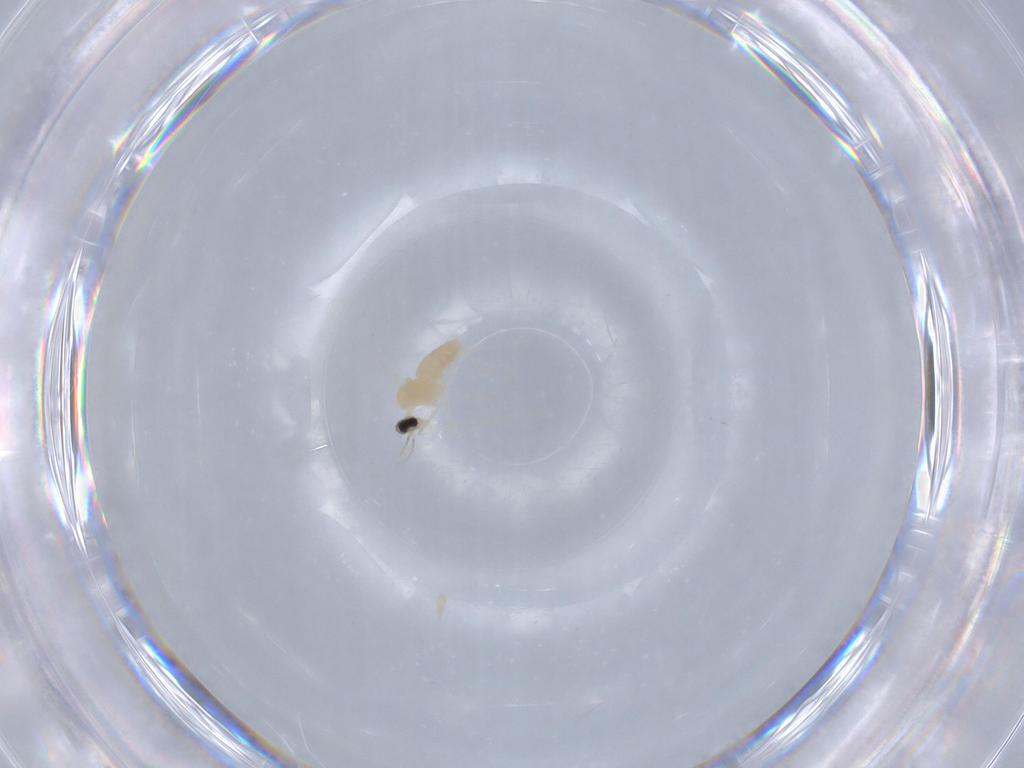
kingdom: Animalia
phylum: Arthropoda
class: Insecta
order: Diptera
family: Cecidomyiidae
